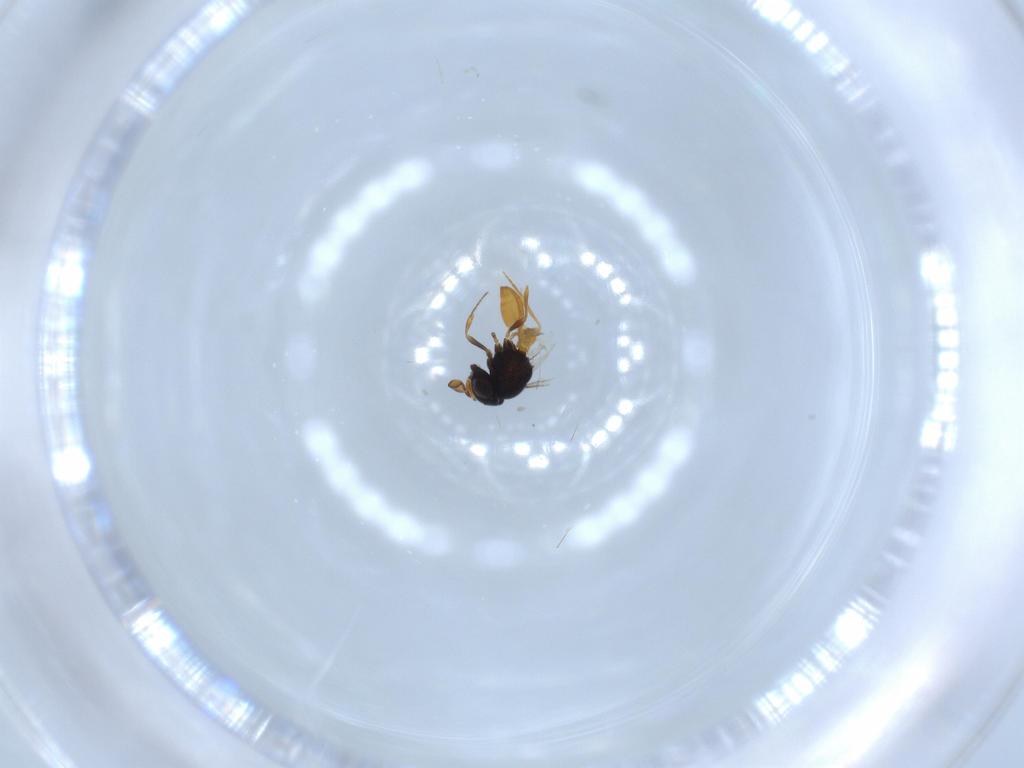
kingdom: Animalia
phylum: Arthropoda
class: Insecta
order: Hymenoptera
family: Scelionidae
